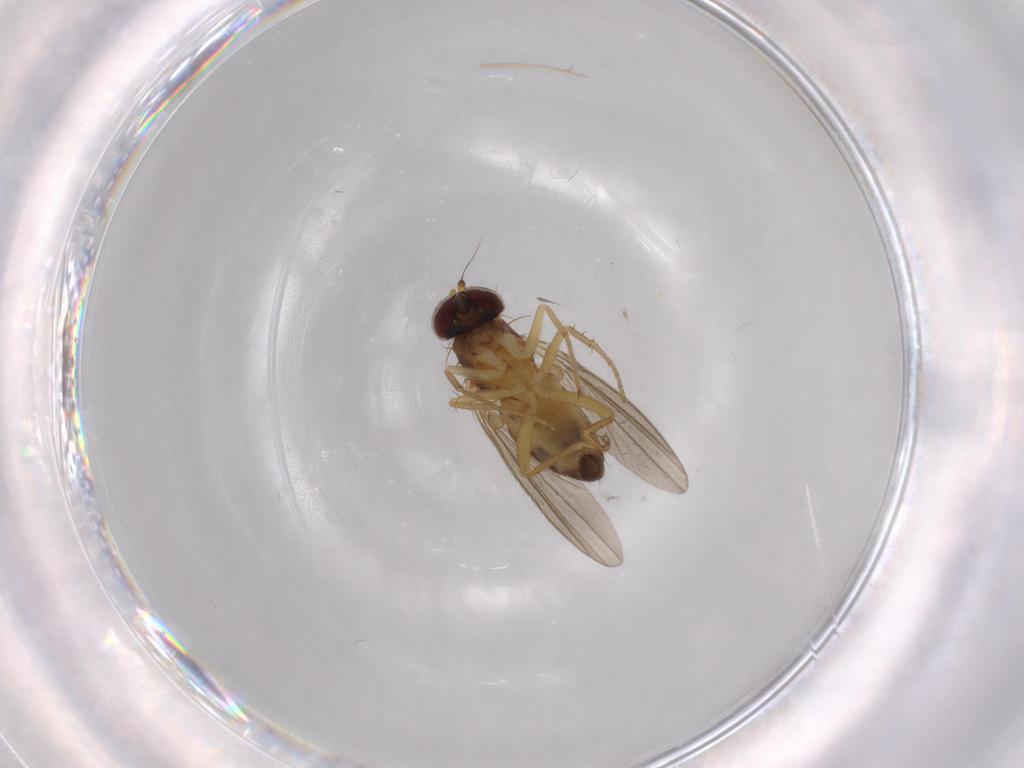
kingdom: Animalia
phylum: Arthropoda
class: Insecta
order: Diptera
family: Dolichopodidae
